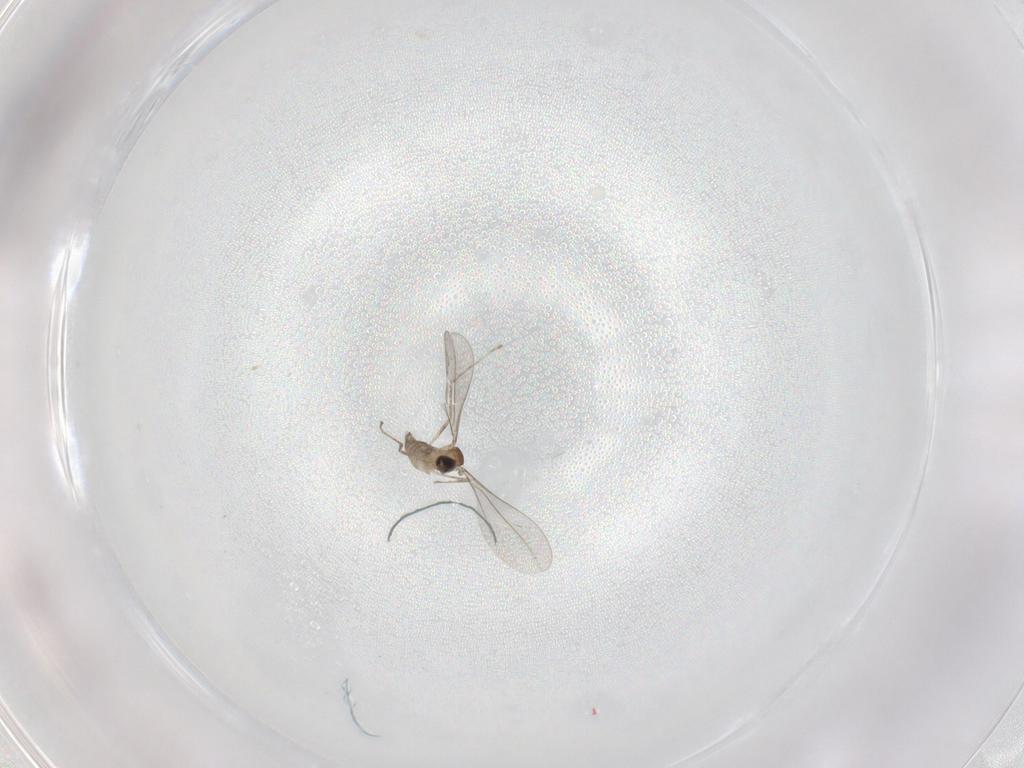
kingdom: Animalia
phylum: Arthropoda
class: Insecta
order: Diptera
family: Cecidomyiidae
